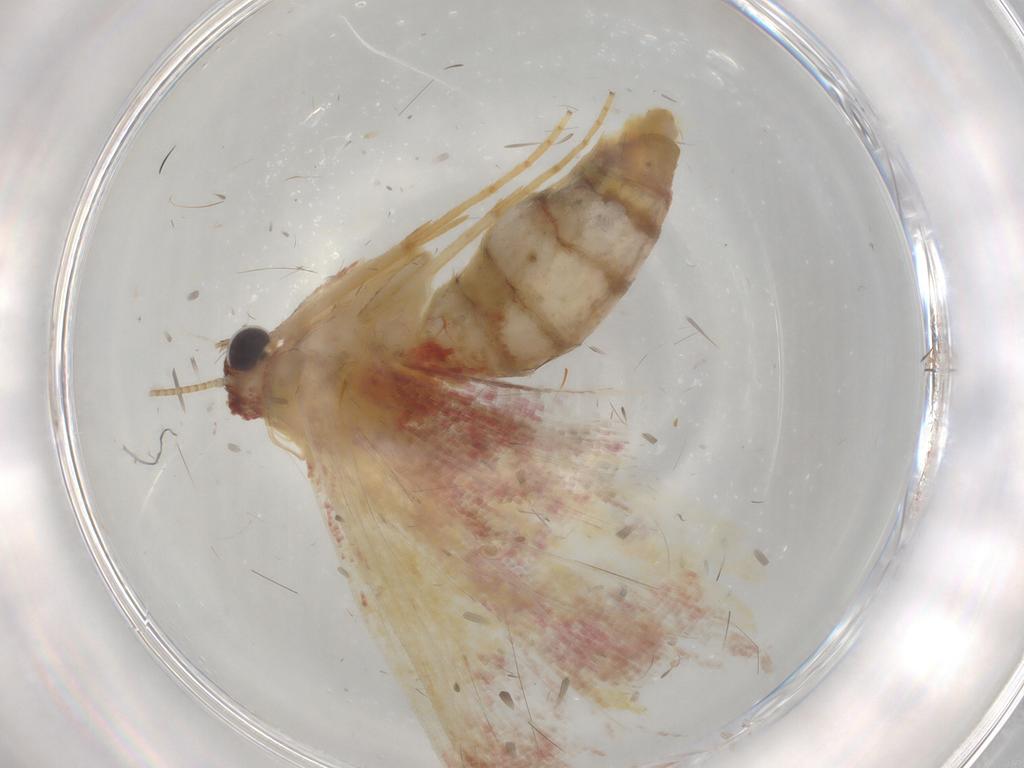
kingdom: Animalia
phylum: Arthropoda
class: Insecta
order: Lepidoptera
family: Geometridae
